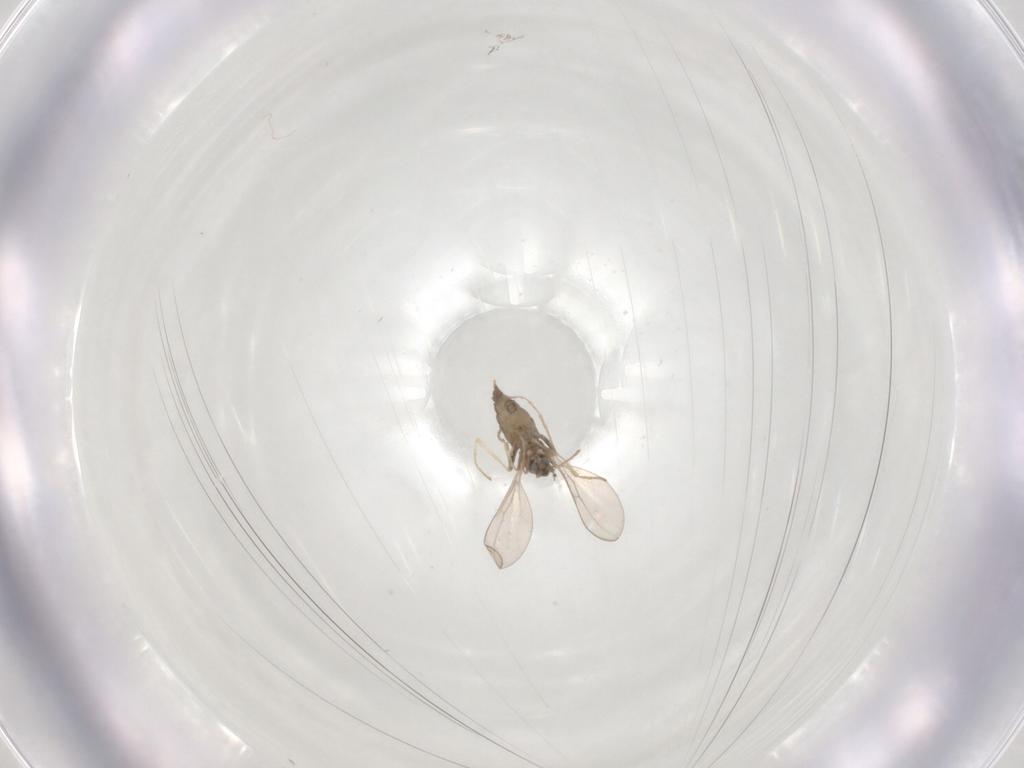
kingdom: Animalia
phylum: Arthropoda
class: Insecta
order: Diptera
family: Cecidomyiidae
